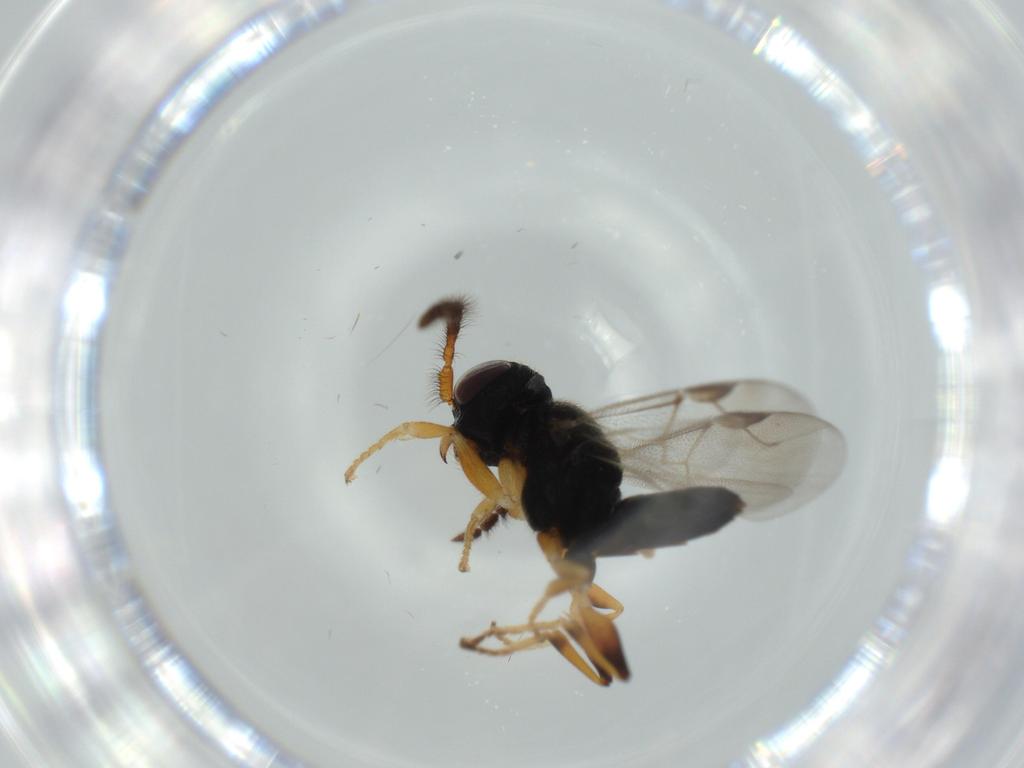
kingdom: Animalia
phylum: Arthropoda
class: Insecta
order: Hymenoptera
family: Dryinidae
